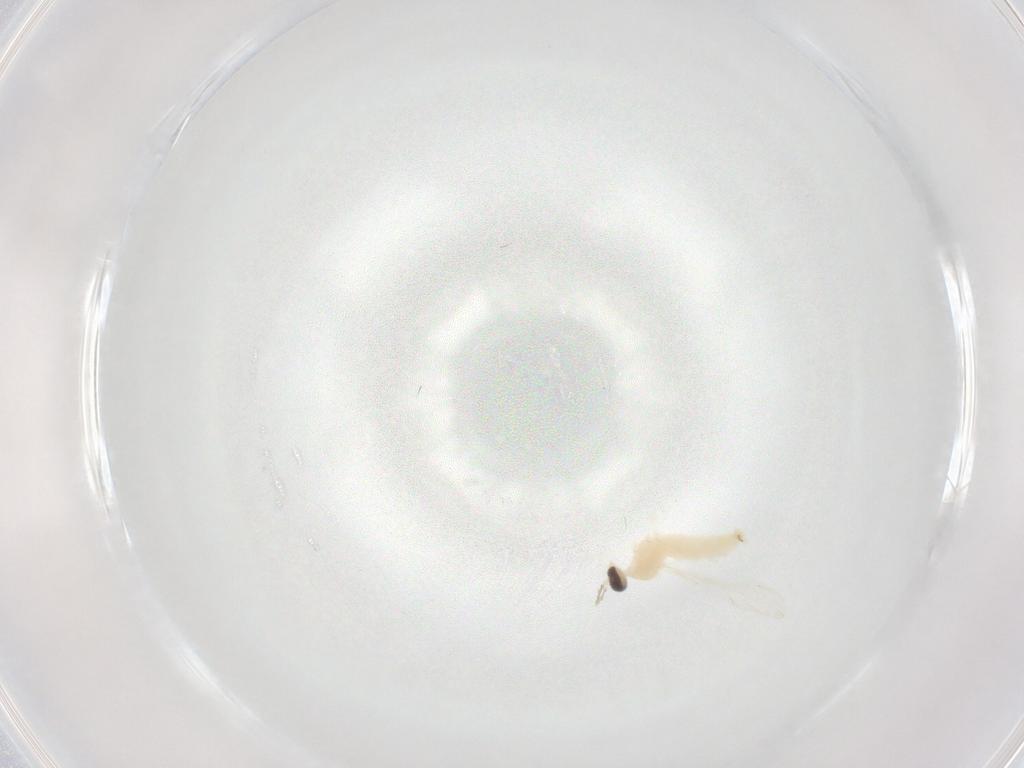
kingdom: Animalia
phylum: Arthropoda
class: Insecta
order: Diptera
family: Cecidomyiidae
